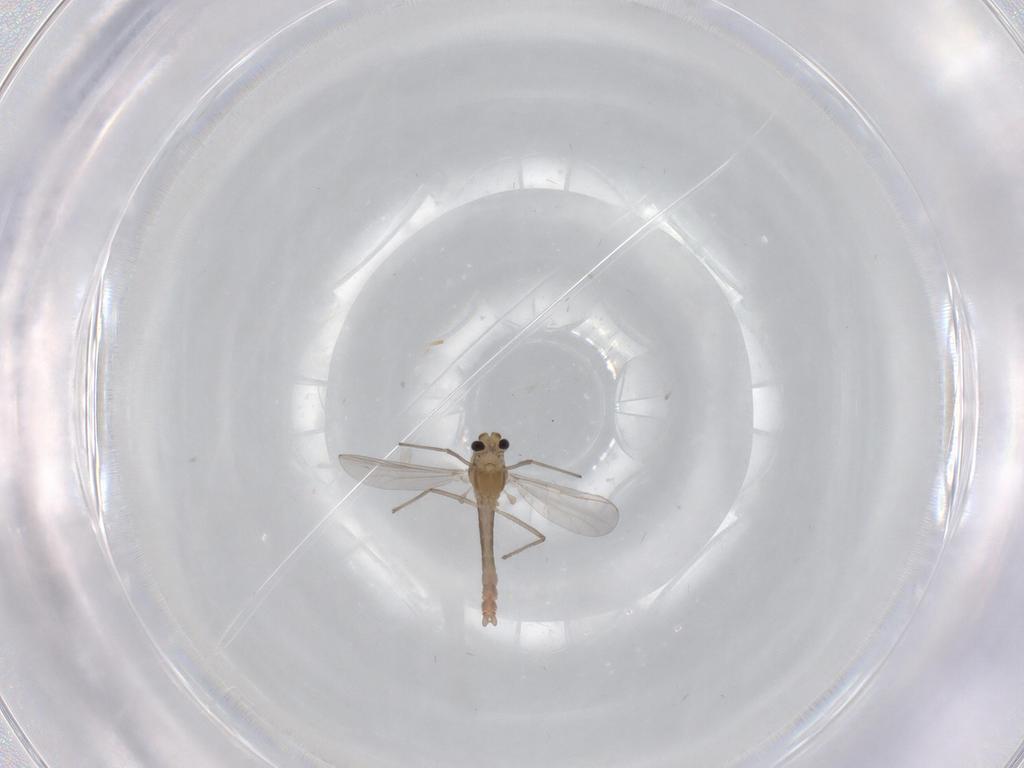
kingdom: Animalia
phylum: Arthropoda
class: Insecta
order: Diptera
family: Chironomidae
